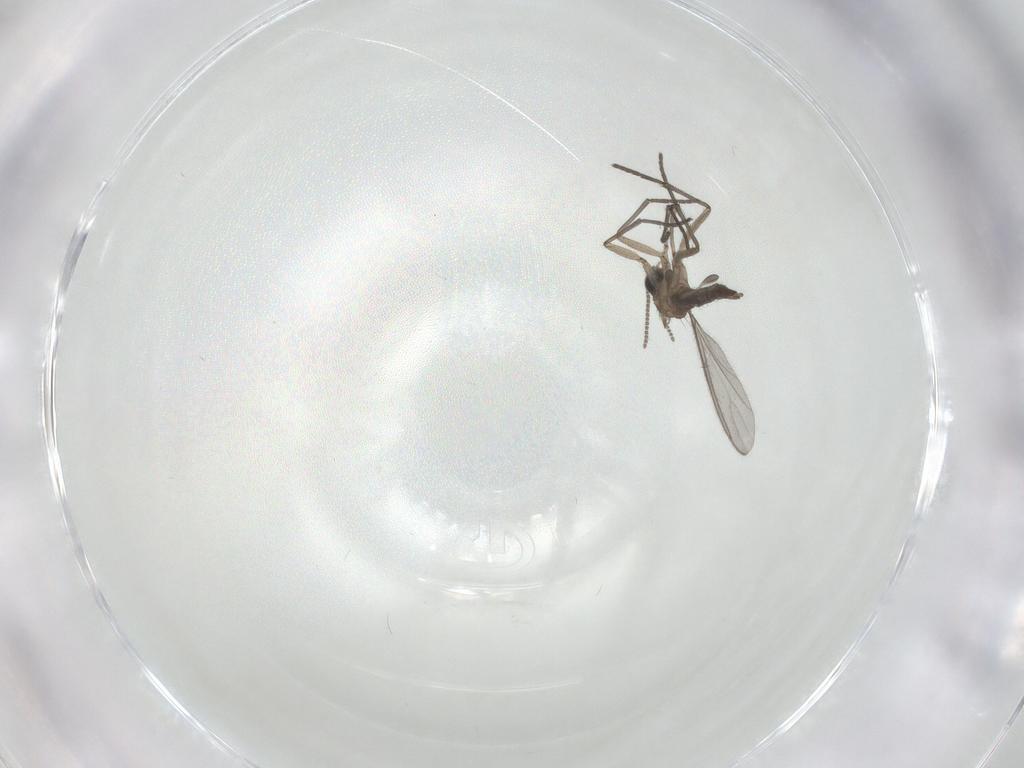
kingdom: Animalia
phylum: Arthropoda
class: Insecta
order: Diptera
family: Sciaridae
